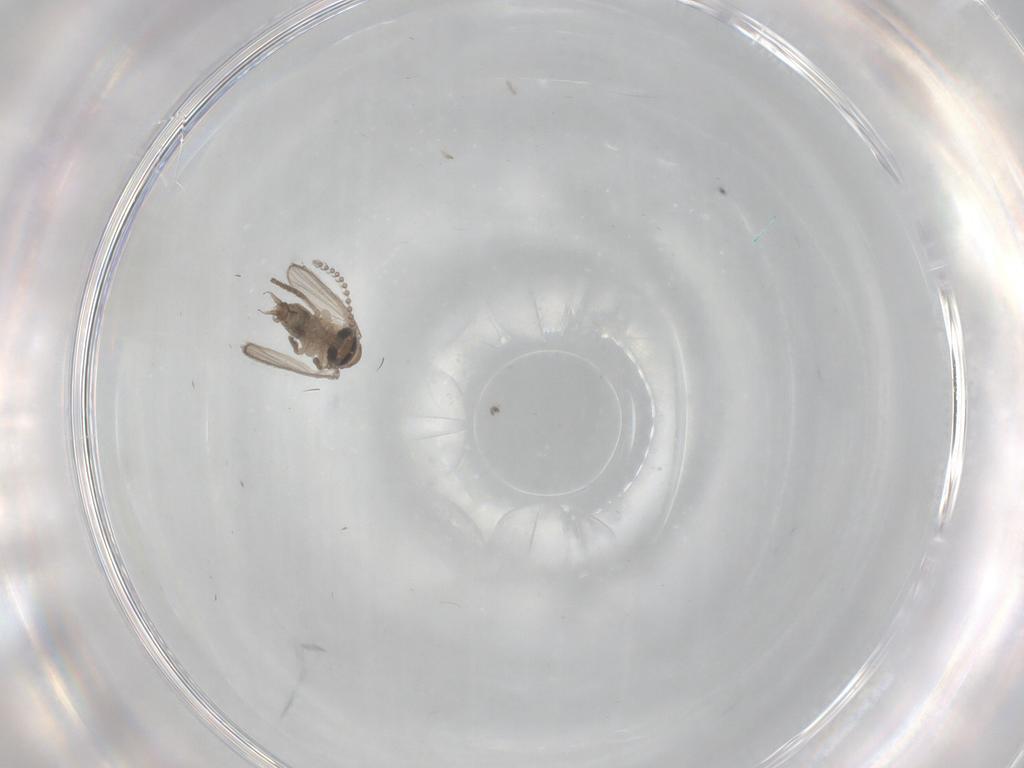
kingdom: Animalia
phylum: Arthropoda
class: Insecta
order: Diptera
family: Psychodidae
